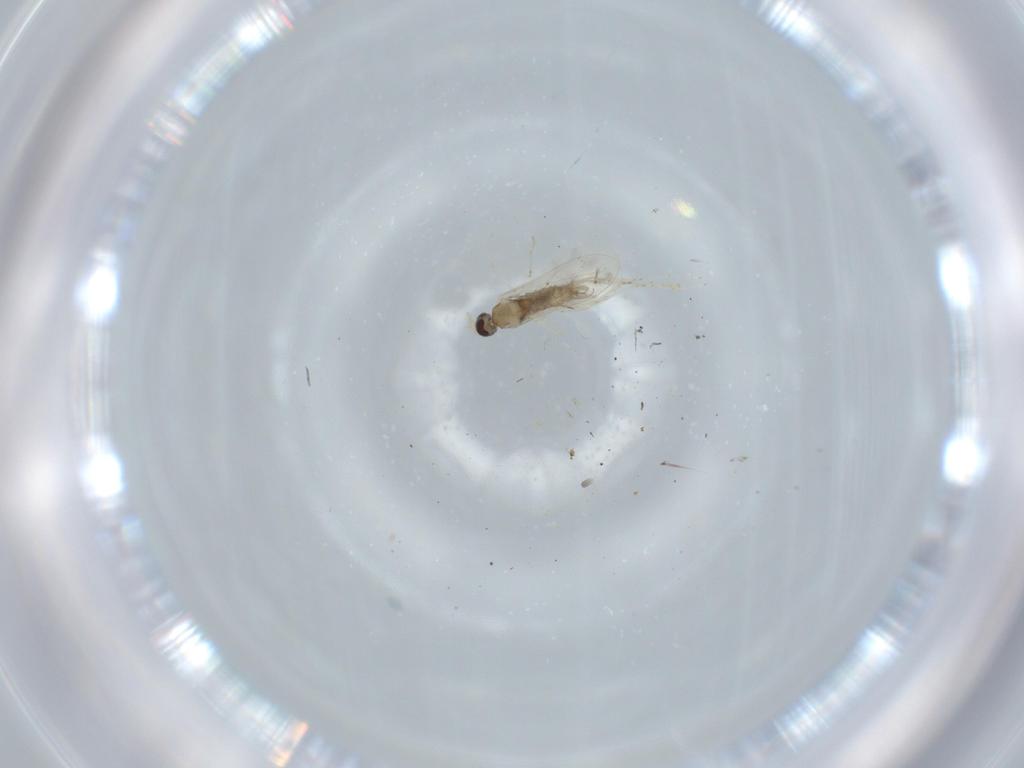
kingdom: Animalia
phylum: Arthropoda
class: Insecta
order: Diptera
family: Cecidomyiidae
